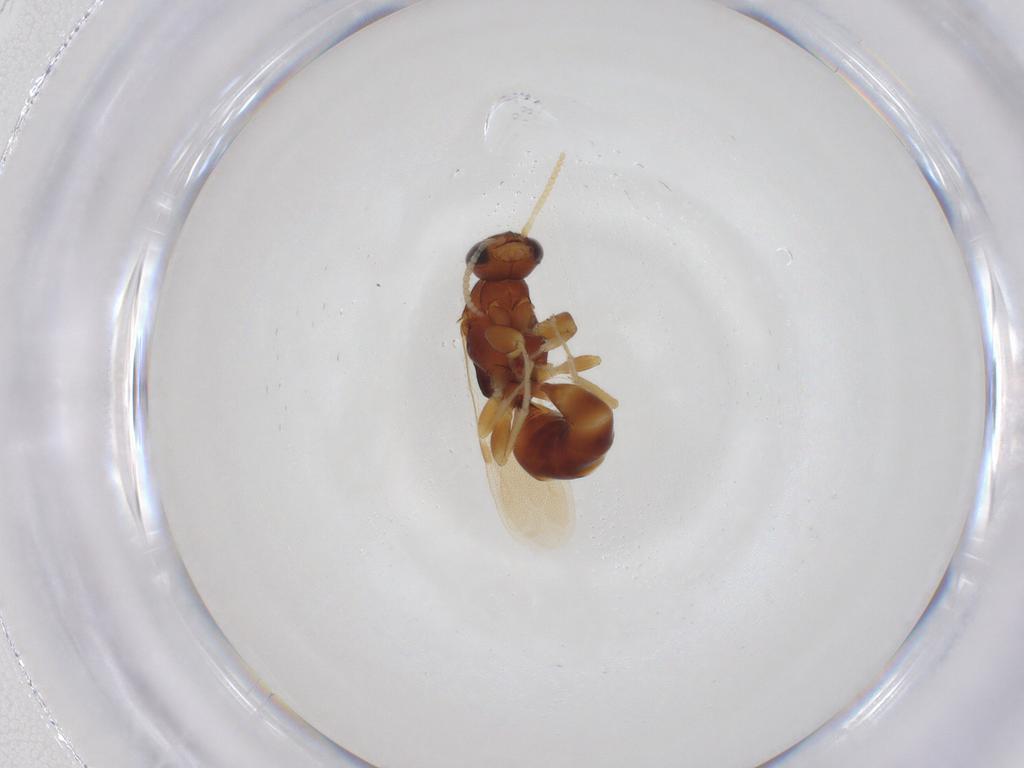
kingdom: Animalia
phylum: Arthropoda
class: Insecta
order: Hymenoptera
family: Bethylidae
